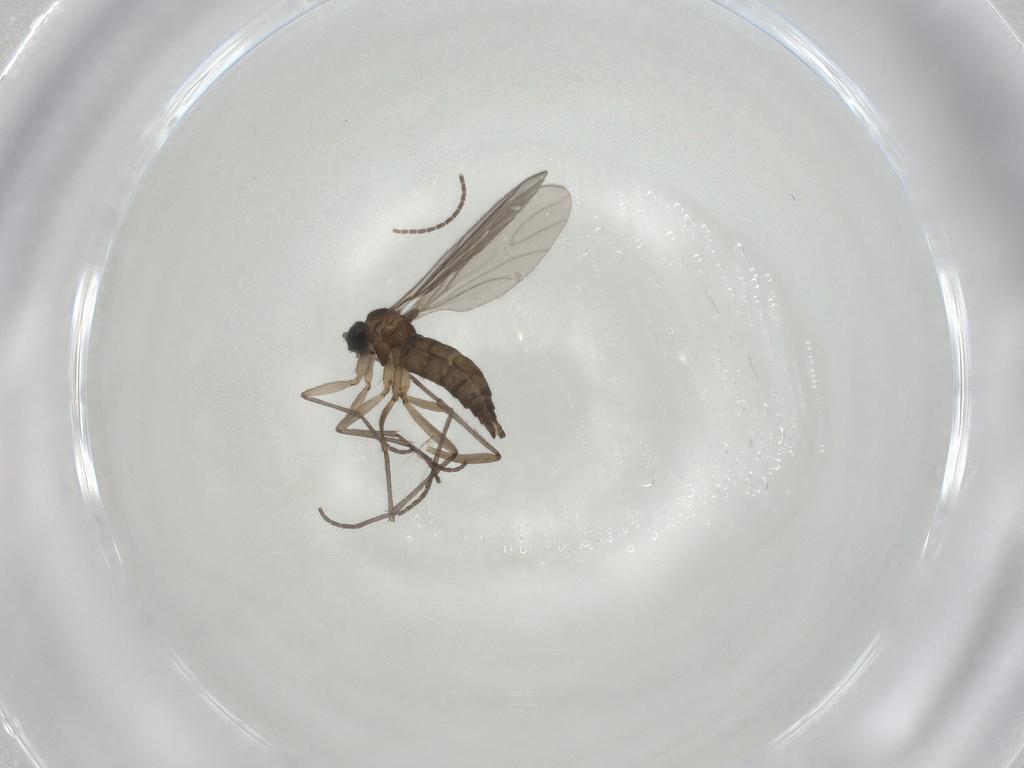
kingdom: Animalia
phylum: Arthropoda
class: Insecta
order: Diptera
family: Sciaridae
